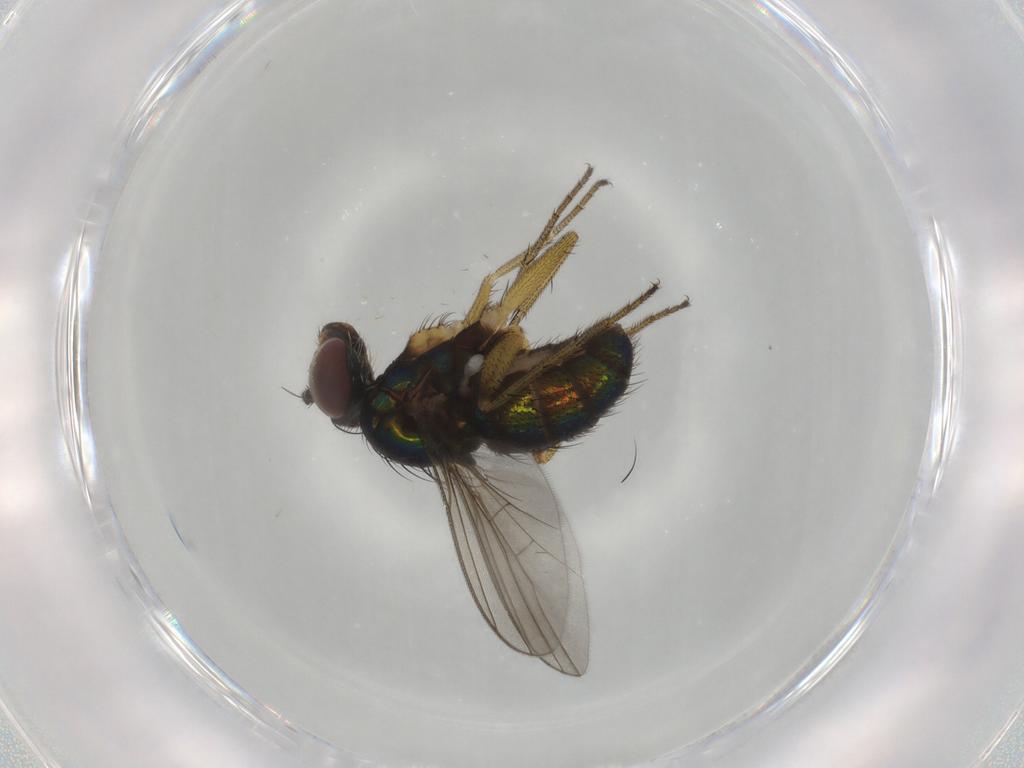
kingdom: Animalia
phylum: Arthropoda
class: Insecta
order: Diptera
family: Dolichopodidae
